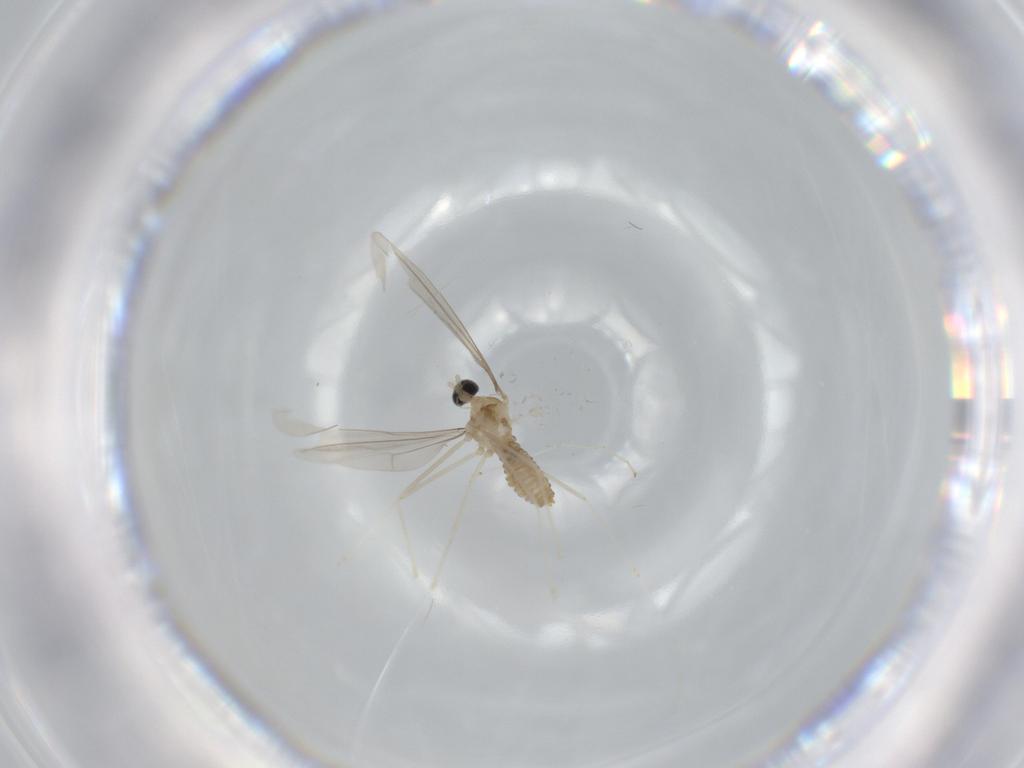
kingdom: Animalia
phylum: Arthropoda
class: Insecta
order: Diptera
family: Cecidomyiidae
